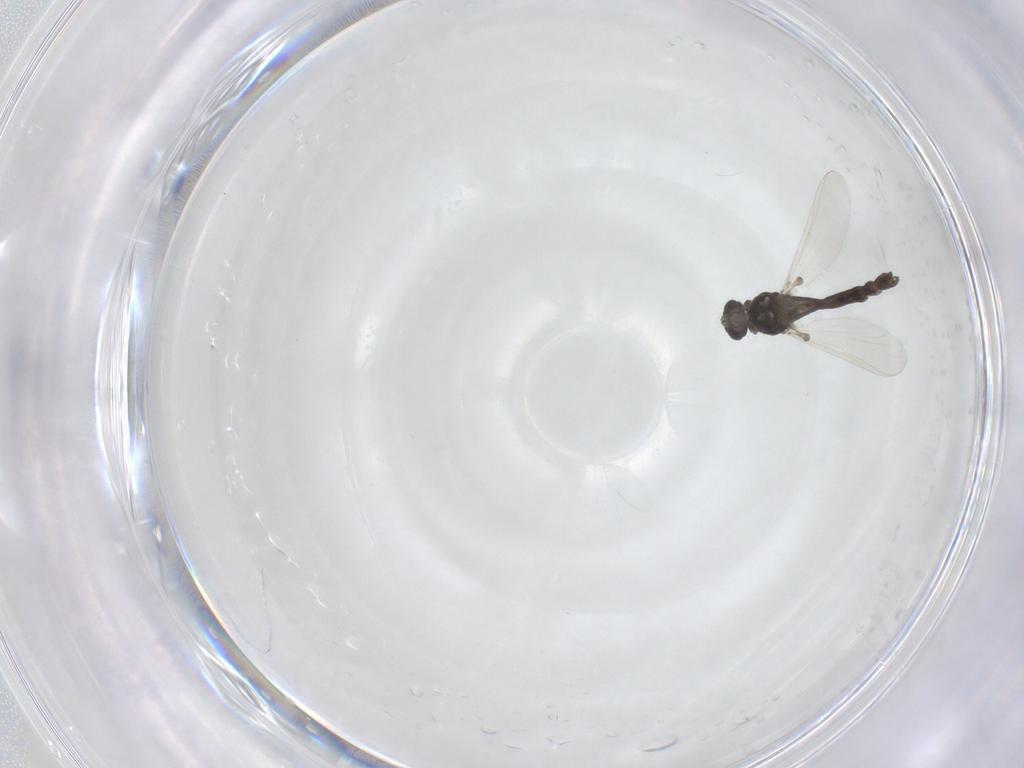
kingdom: Animalia
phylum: Arthropoda
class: Insecta
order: Diptera
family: Chironomidae
